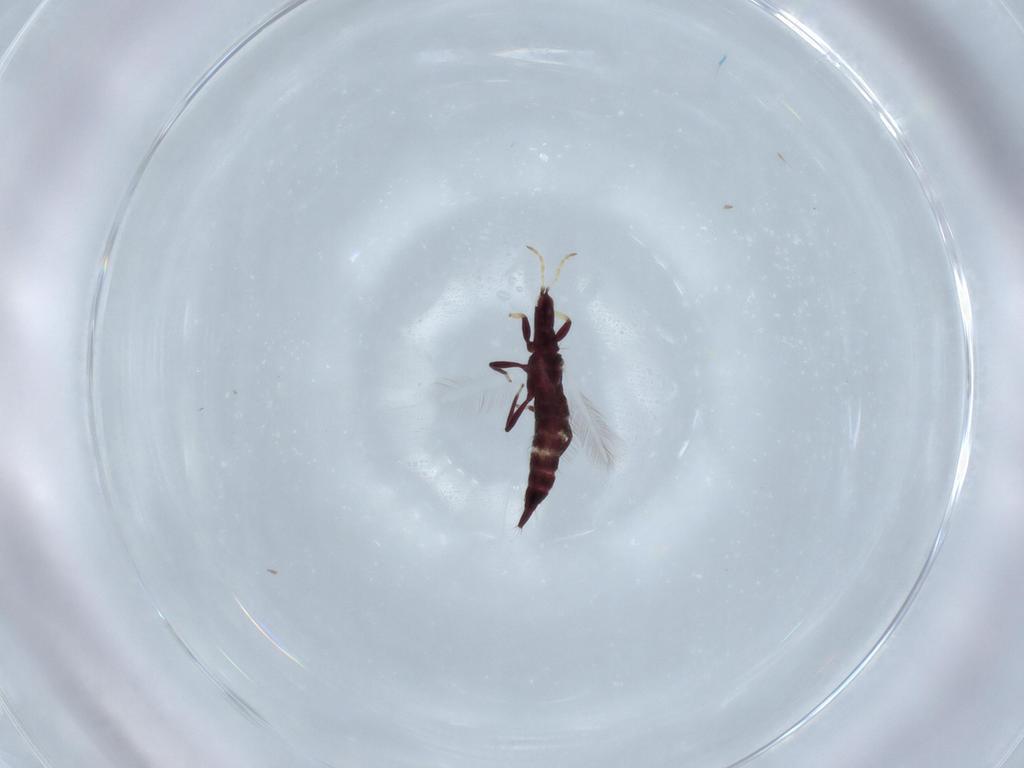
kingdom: Animalia
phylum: Arthropoda
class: Insecta
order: Thysanoptera
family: Phlaeothripidae
